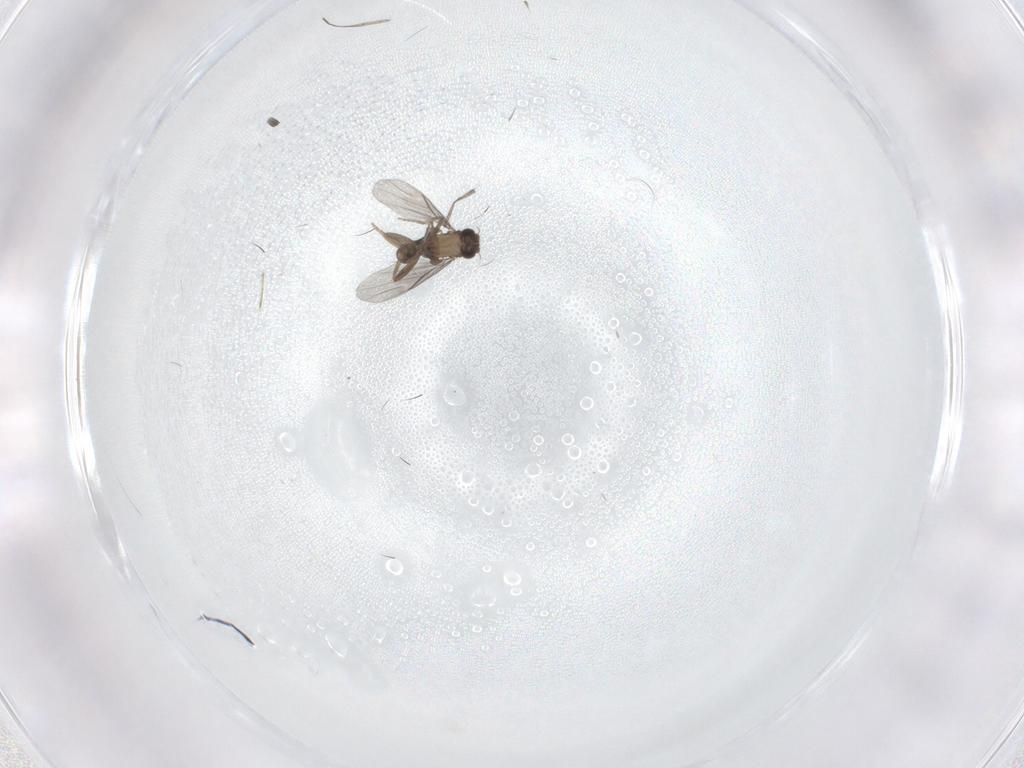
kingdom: Animalia
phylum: Arthropoda
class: Insecta
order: Diptera
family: Sciaridae
